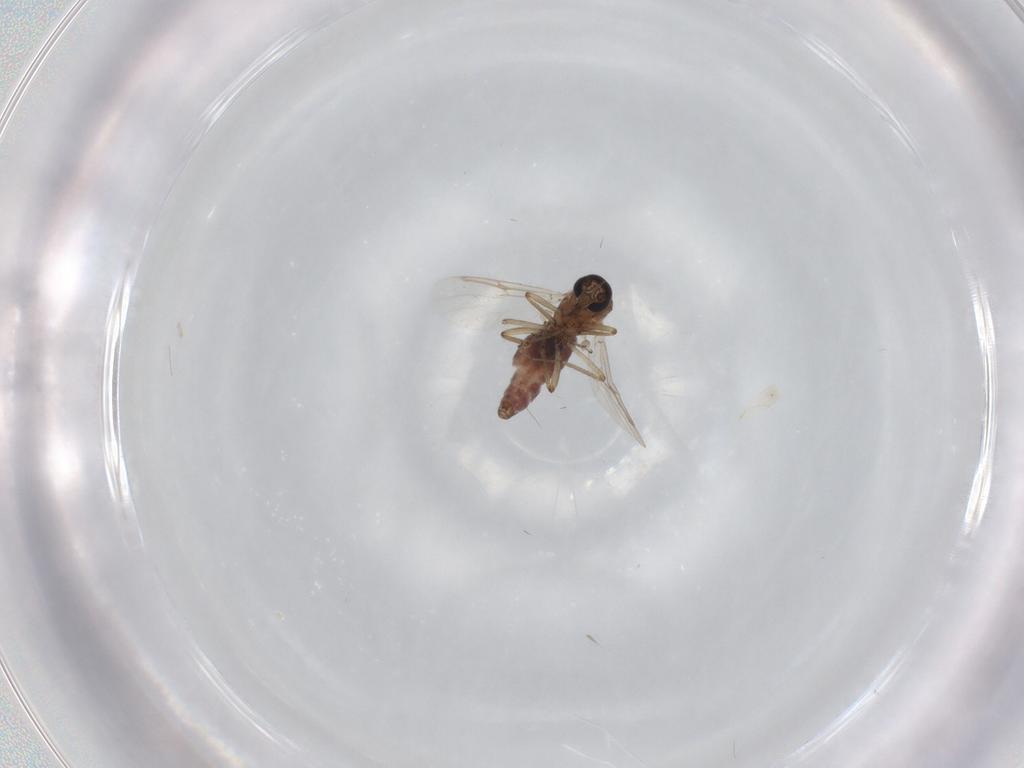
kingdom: Animalia
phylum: Arthropoda
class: Insecta
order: Diptera
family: Ceratopogonidae
